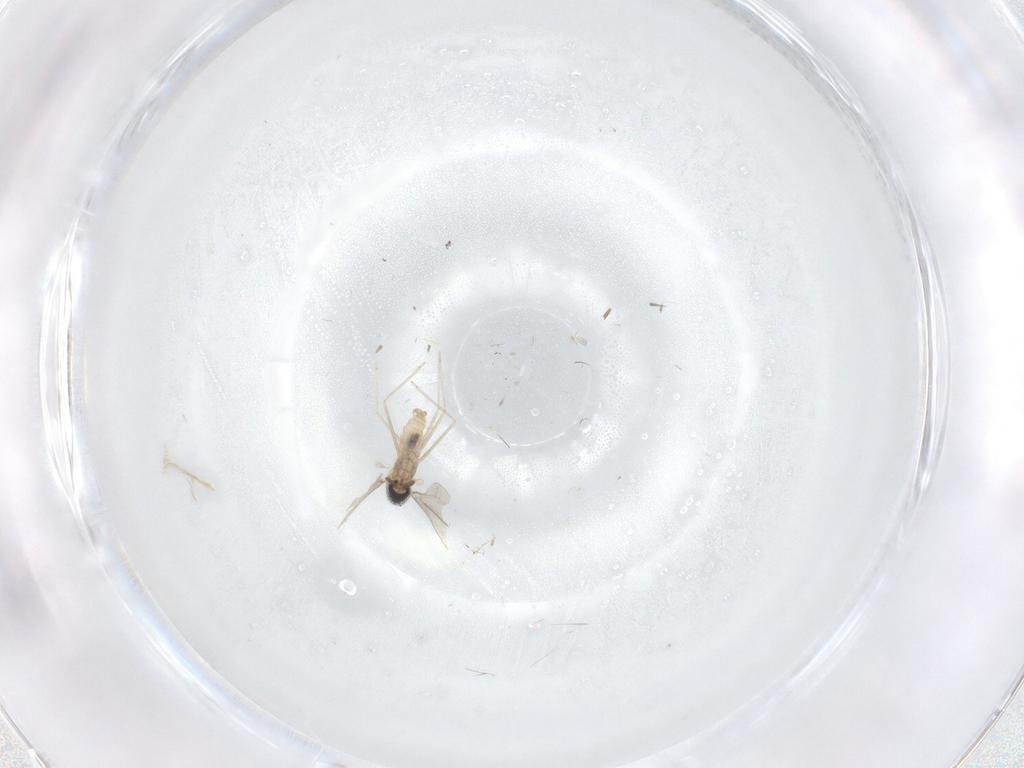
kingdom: Animalia
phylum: Arthropoda
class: Insecta
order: Diptera
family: Cecidomyiidae
